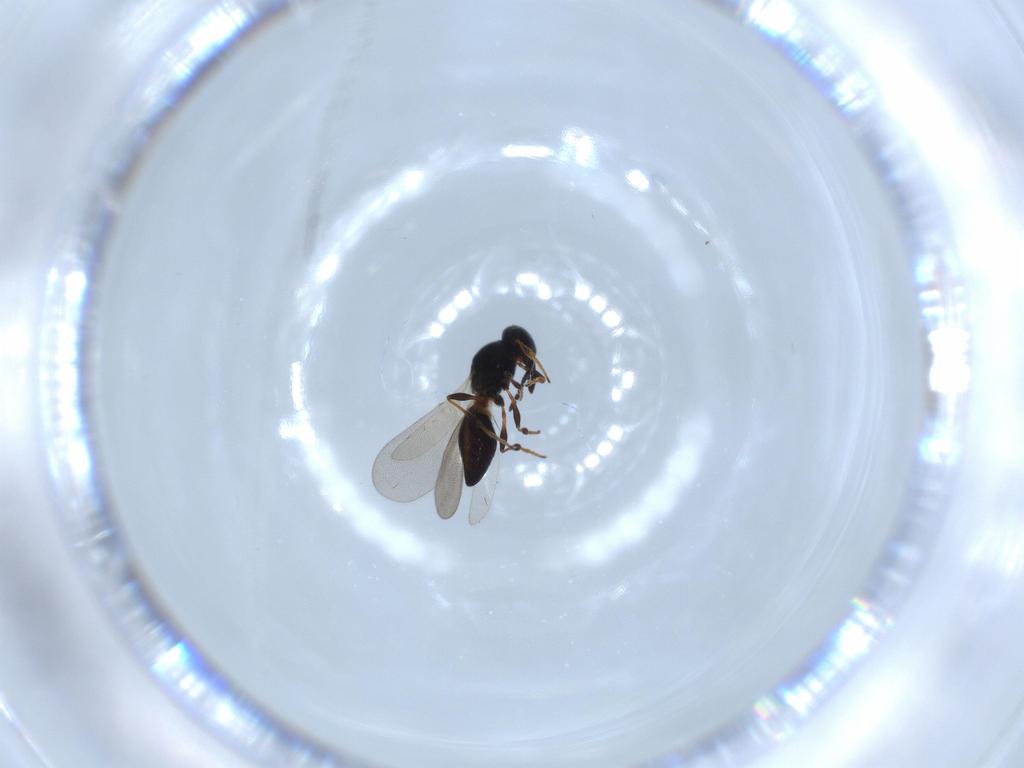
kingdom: Animalia
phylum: Arthropoda
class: Insecta
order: Hymenoptera
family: Platygastridae
